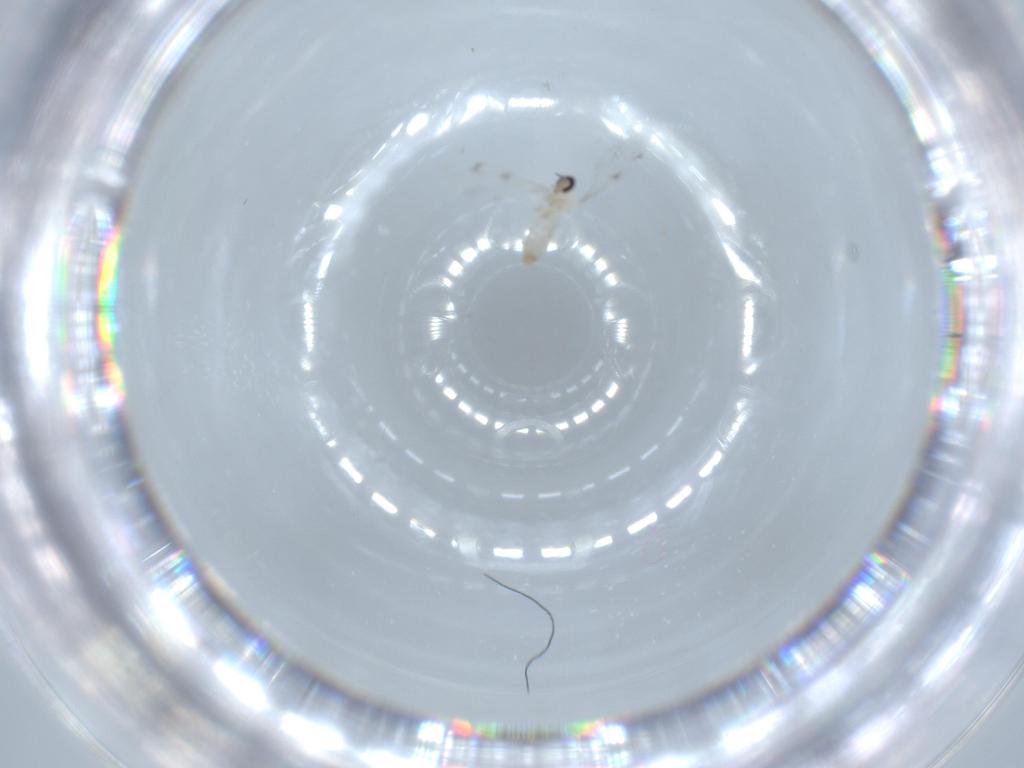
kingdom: Animalia
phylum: Arthropoda
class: Insecta
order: Diptera
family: Cecidomyiidae
